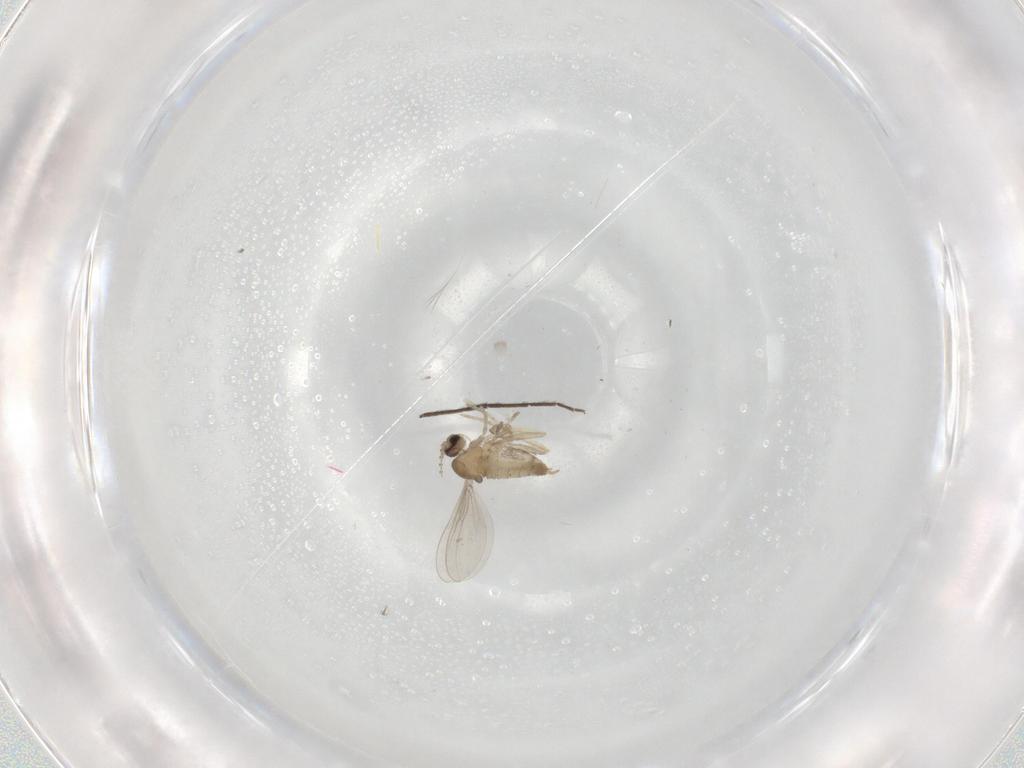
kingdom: Animalia
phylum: Arthropoda
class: Insecta
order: Diptera
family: Cecidomyiidae
